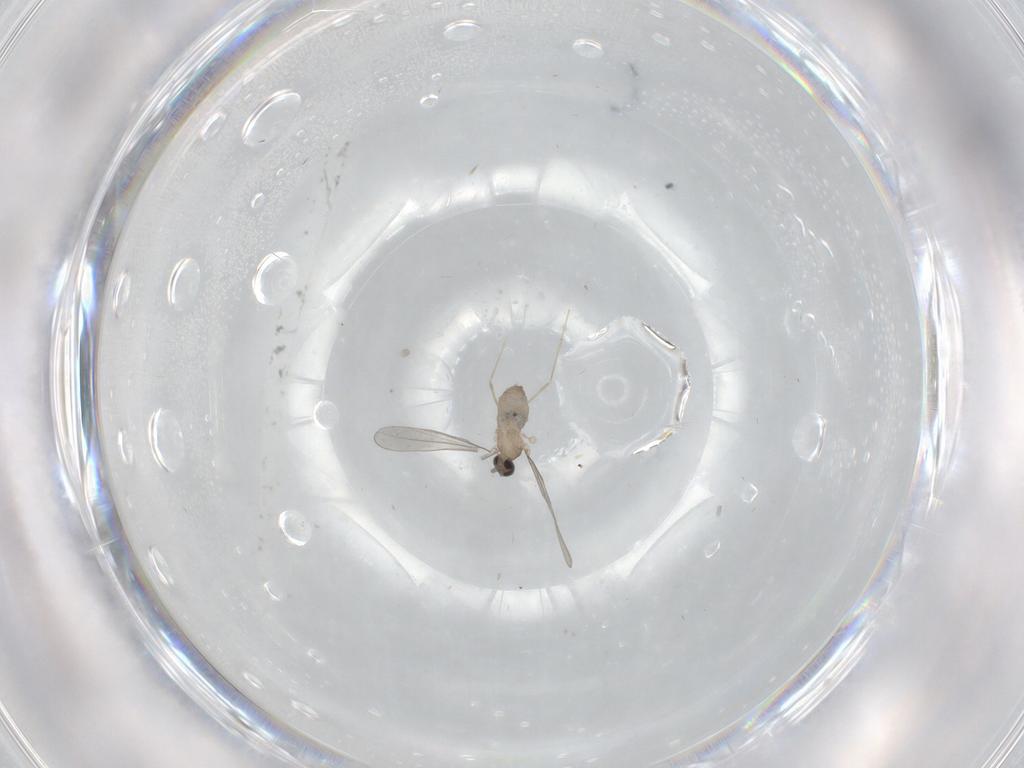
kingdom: Animalia
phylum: Arthropoda
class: Insecta
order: Diptera
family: Cecidomyiidae
